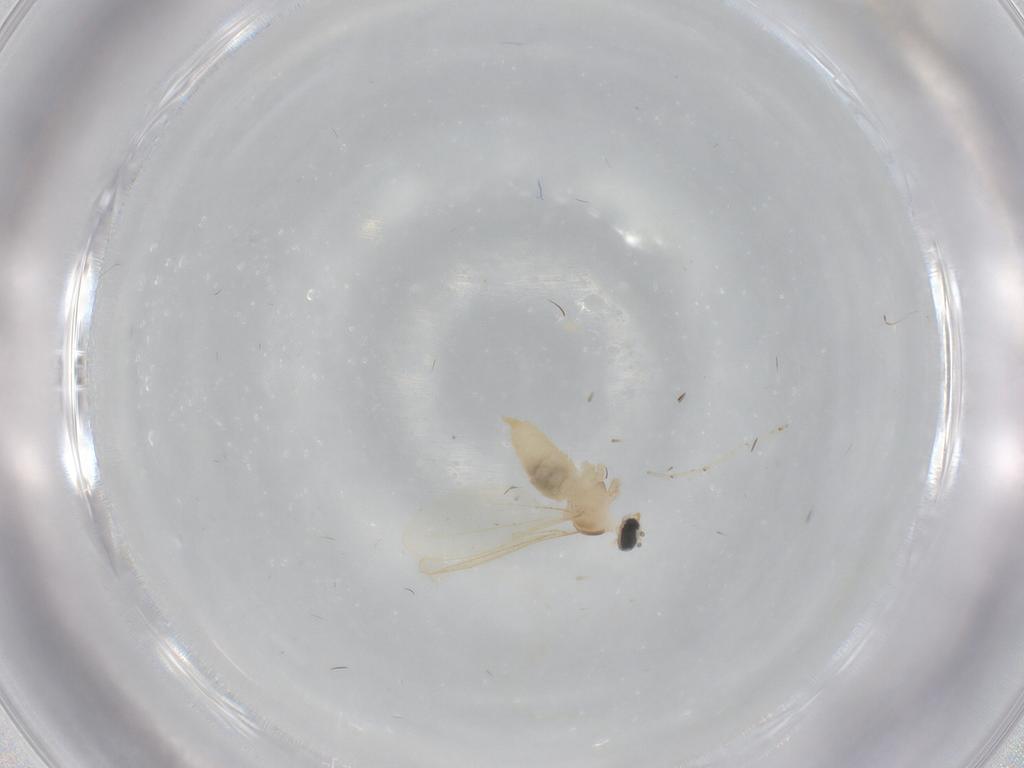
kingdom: Animalia
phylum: Arthropoda
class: Insecta
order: Diptera
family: Cecidomyiidae
